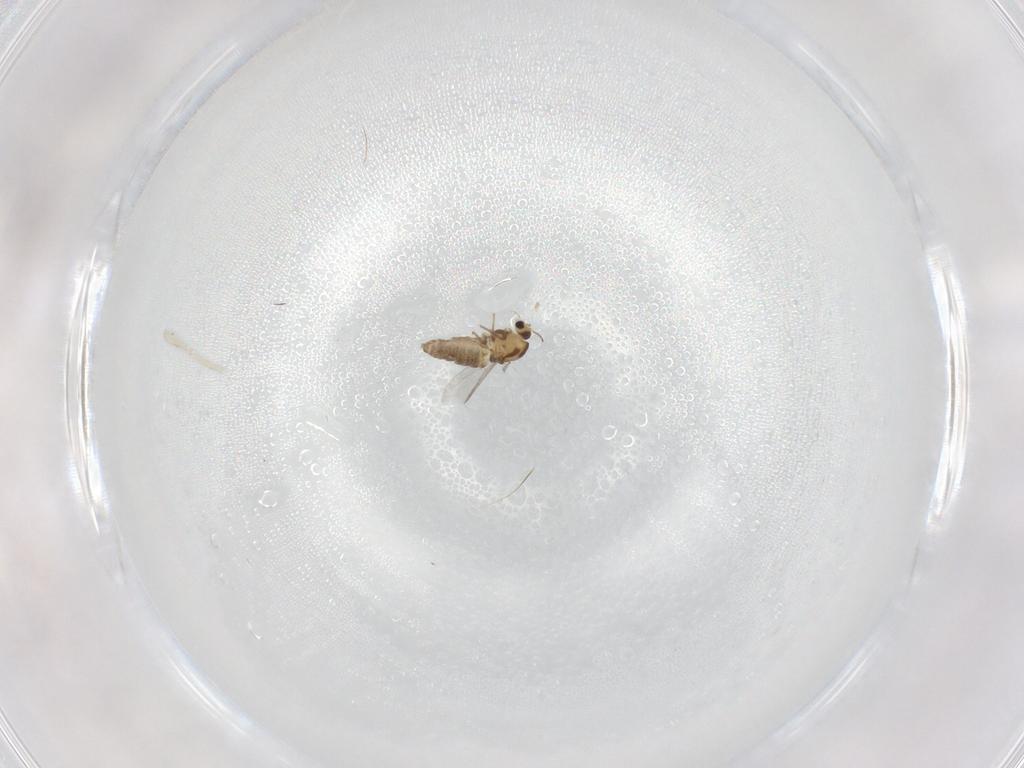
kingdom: Animalia
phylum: Arthropoda
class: Insecta
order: Diptera
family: Chironomidae
